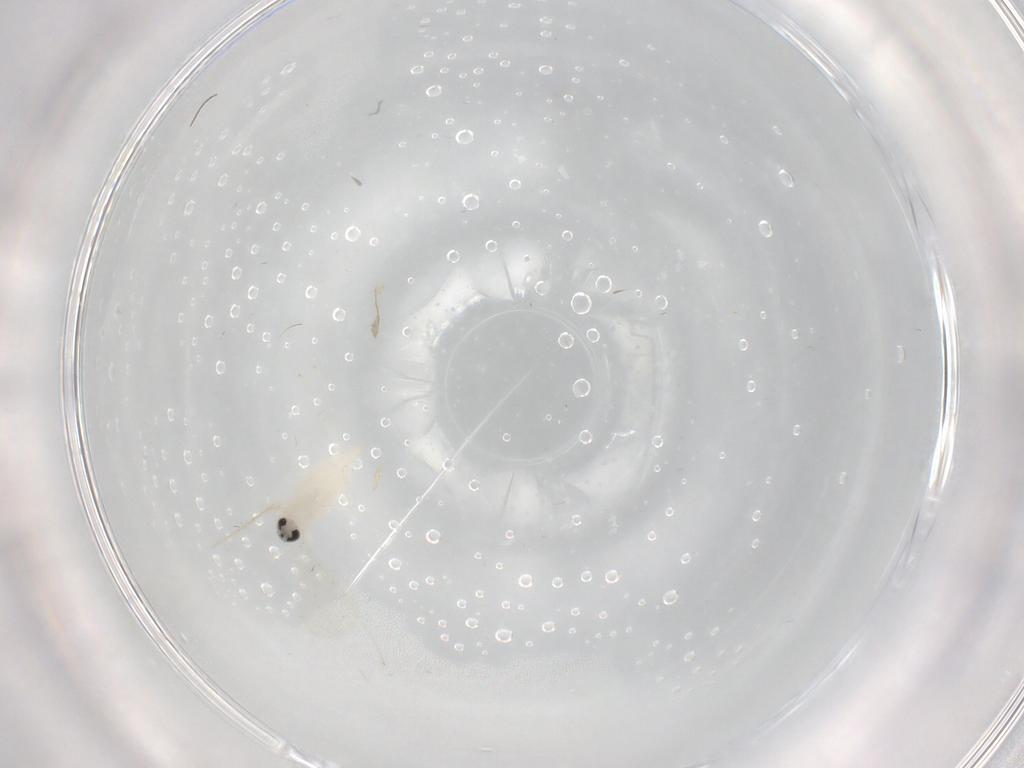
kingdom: Animalia
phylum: Arthropoda
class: Insecta
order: Diptera
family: Cecidomyiidae
